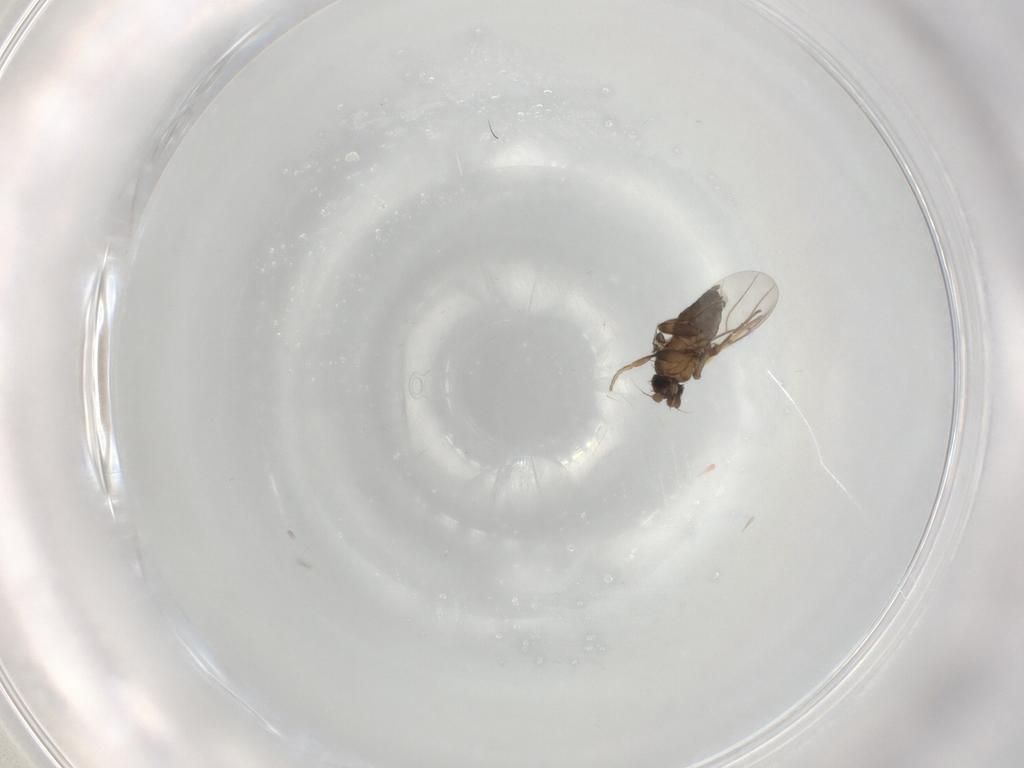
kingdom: Animalia
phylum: Arthropoda
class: Insecta
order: Diptera
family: Phoridae
